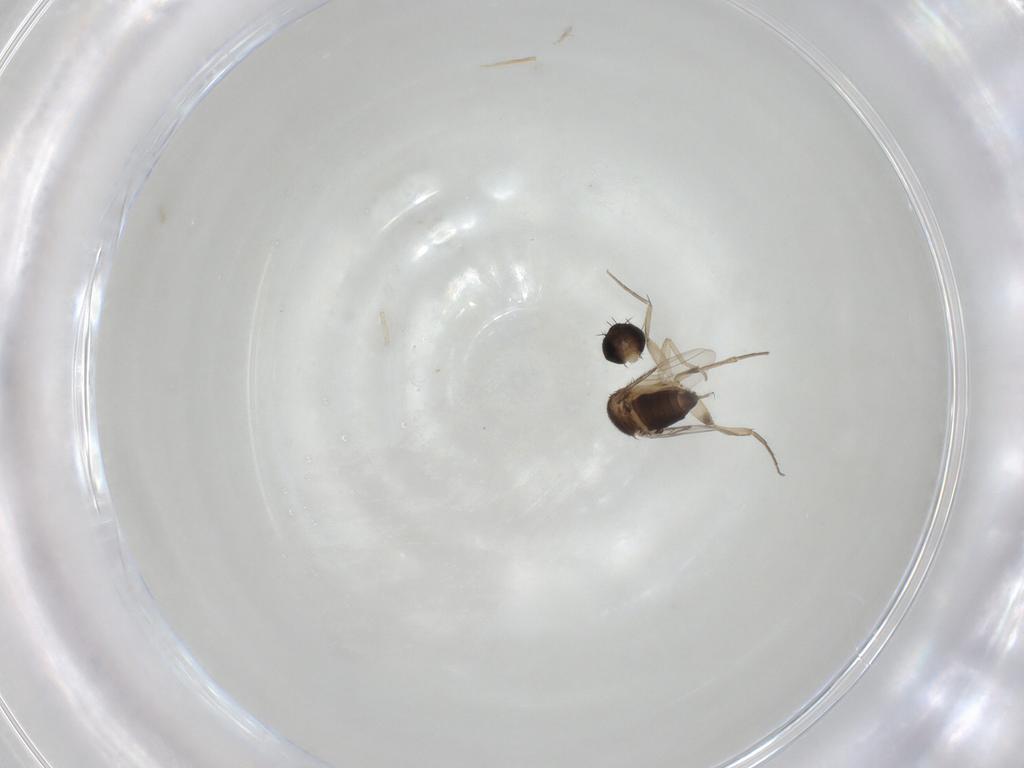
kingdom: Animalia
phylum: Arthropoda
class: Insecta
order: Diptera
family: Phoridae
